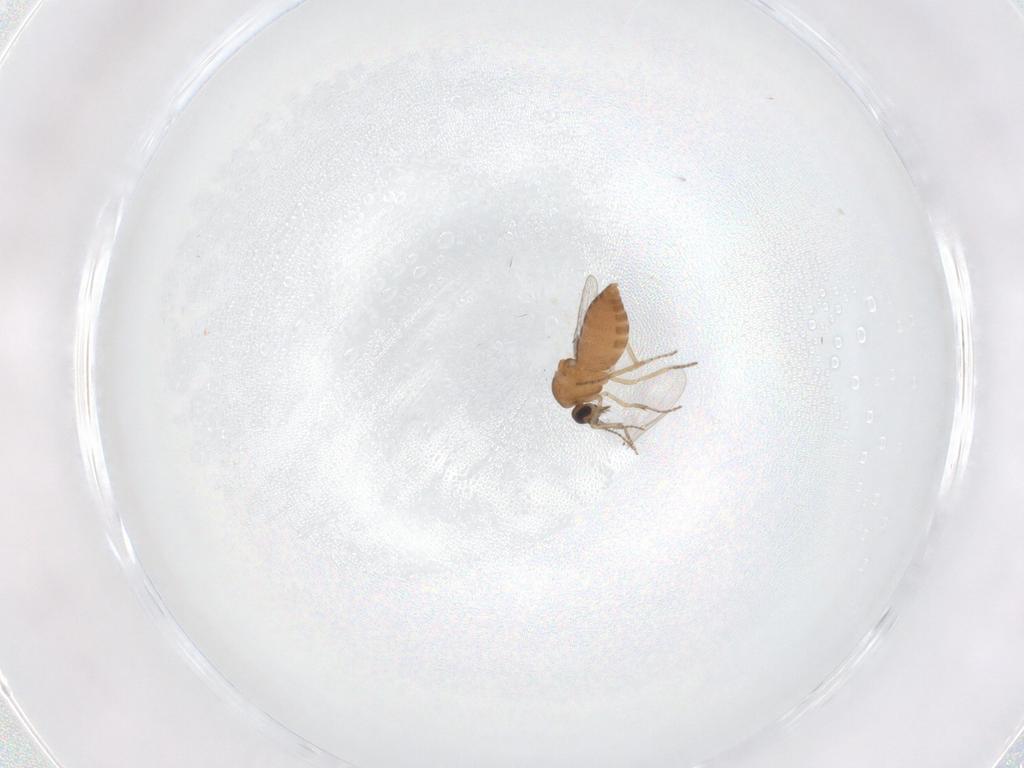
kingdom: Animalia
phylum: Arthropoda
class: Insecta
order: Diptera
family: Ceratopogonidae
